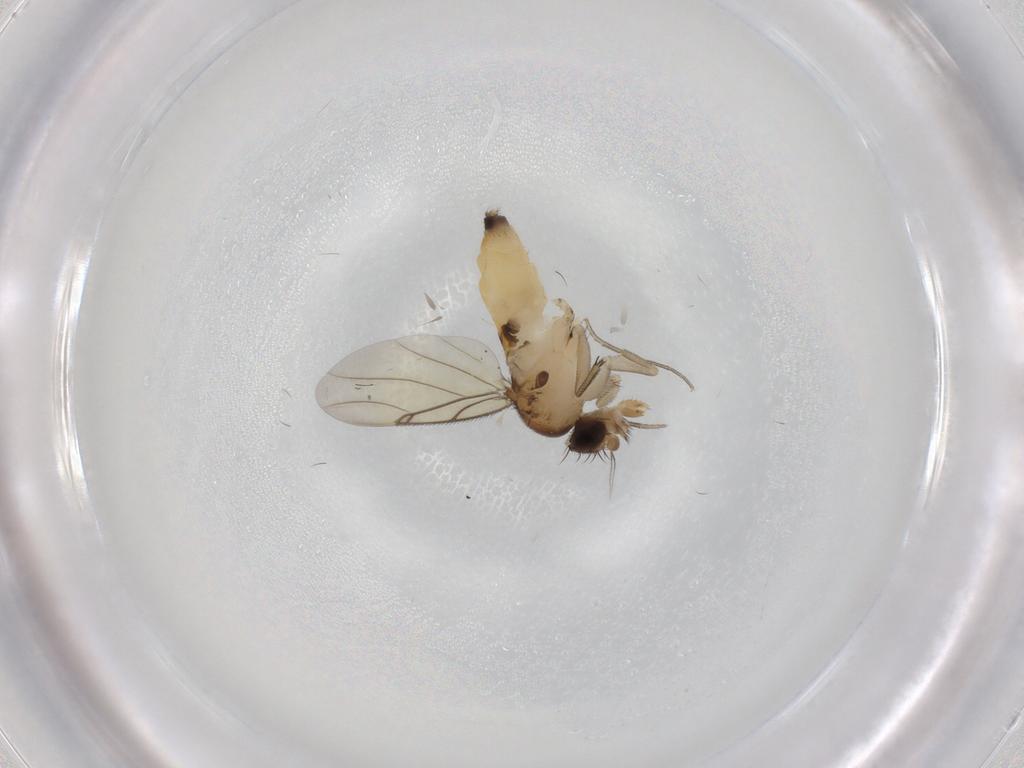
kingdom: Animalia
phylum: Arthropoda
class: Insecta
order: Diptera
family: Phoridae
